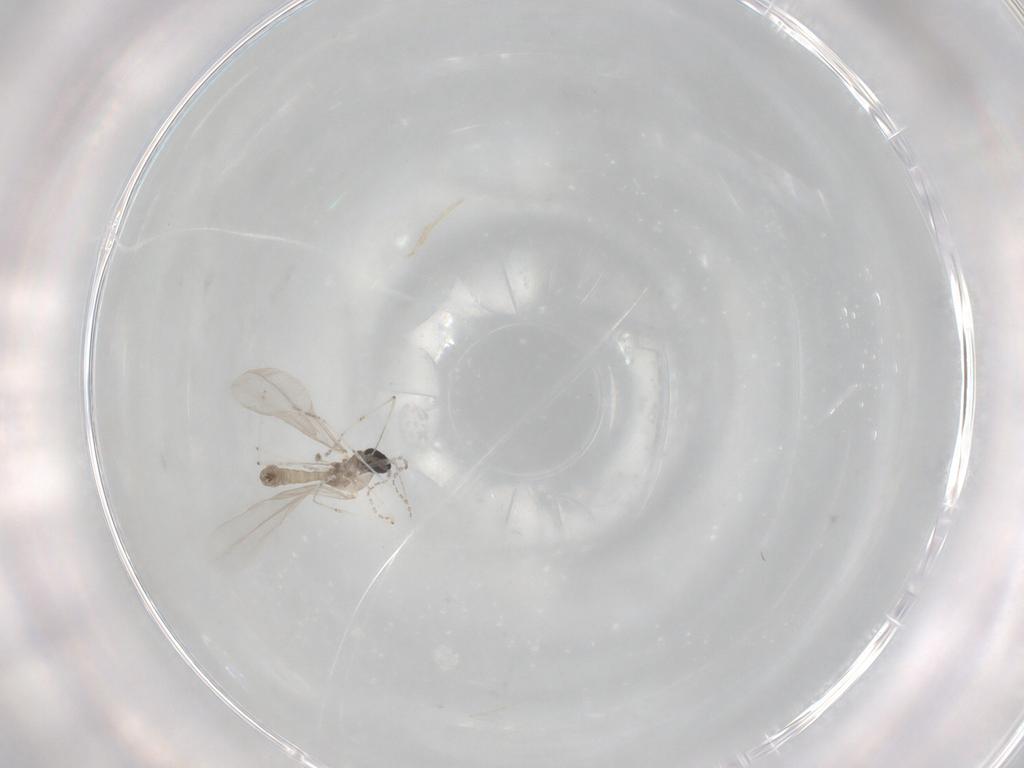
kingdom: Animalia
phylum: Arthropoda
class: Insecta
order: Diptera
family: Cecidomyiidae
